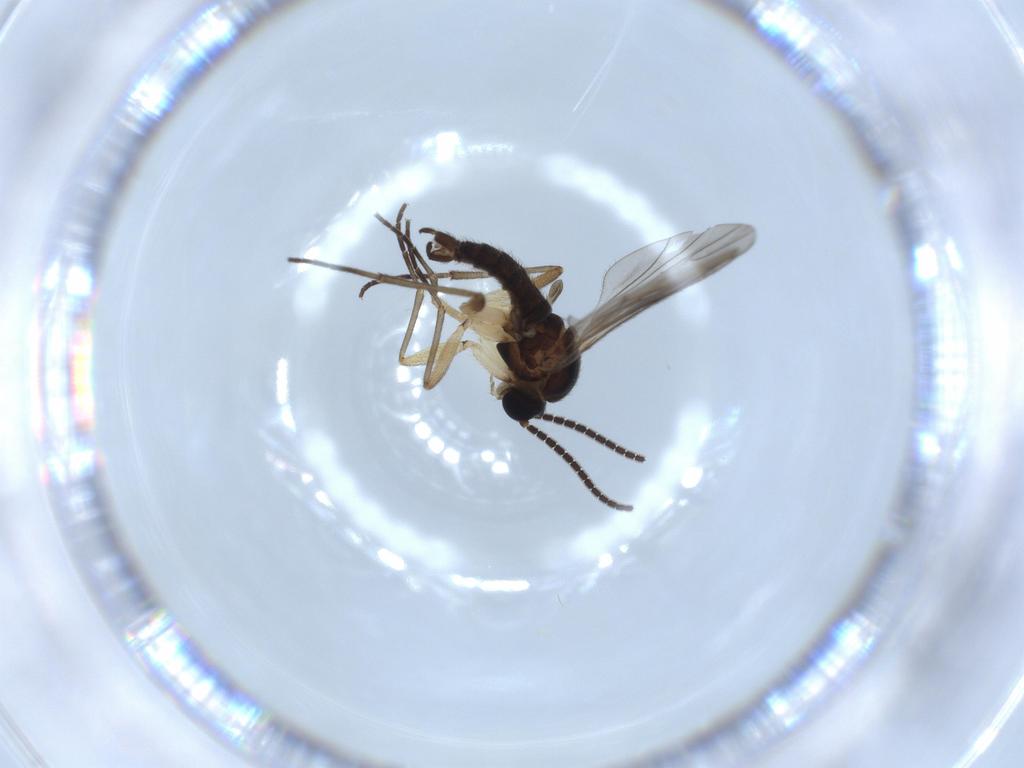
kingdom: Animalia
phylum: Arthropoda
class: Insecta
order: Diptera
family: Sciaridae
